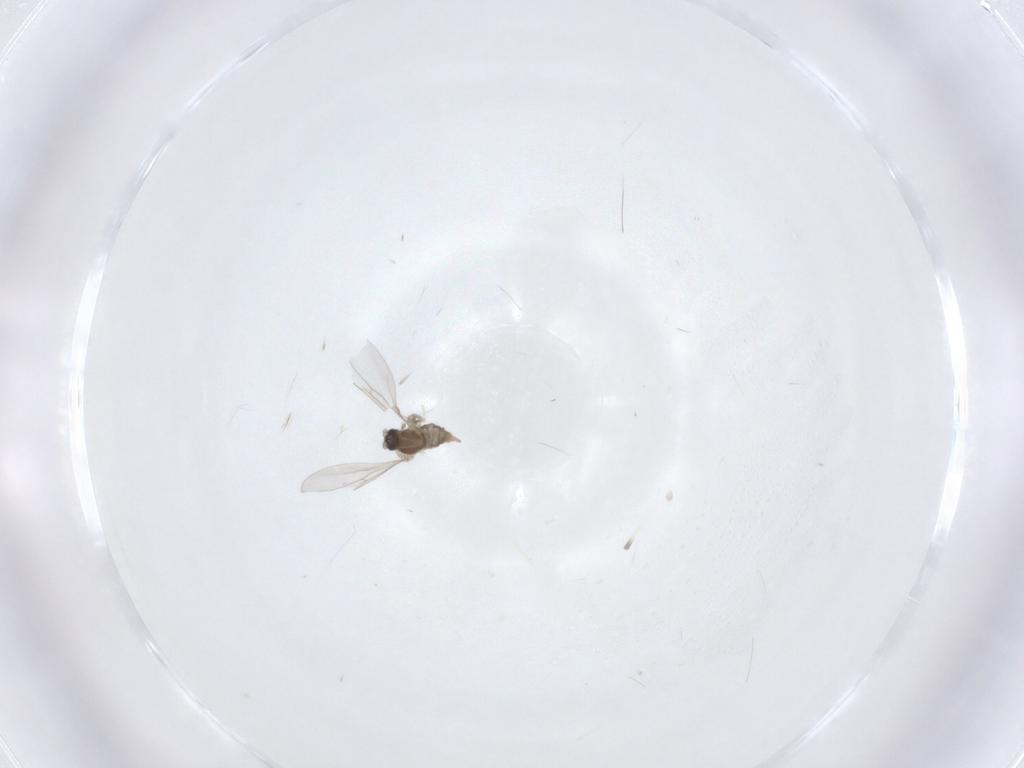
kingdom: Animalia
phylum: Arthropoda
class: Insecta
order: Diptera
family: Cecidomyiidae
